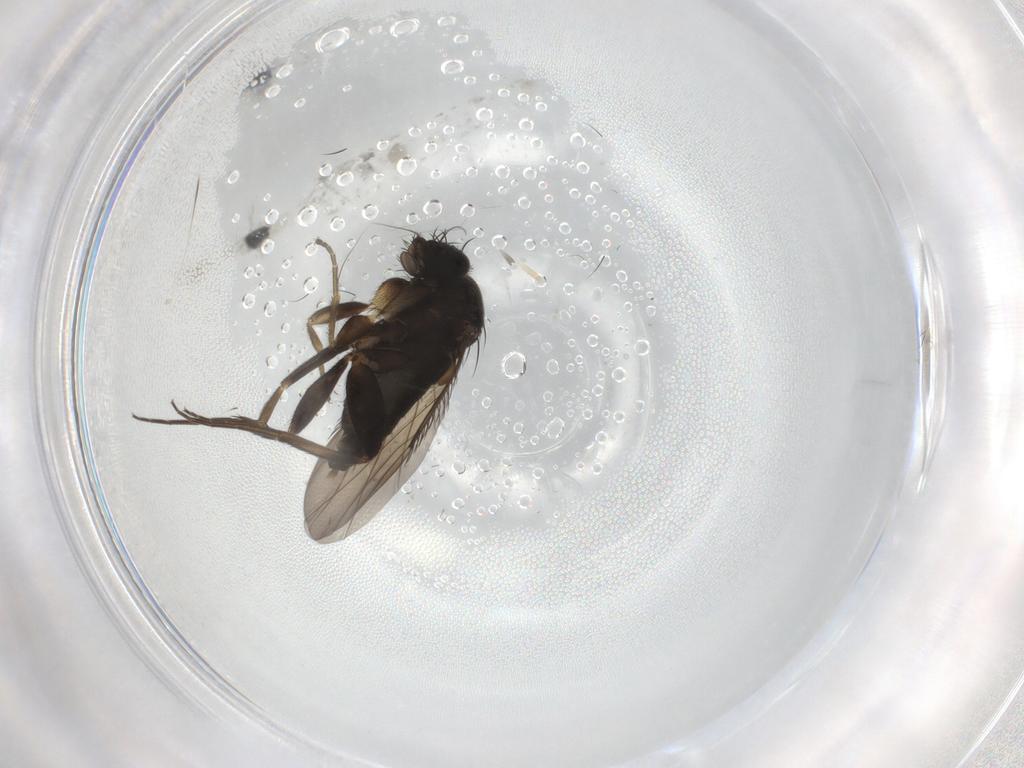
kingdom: Animalia
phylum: Arthropoda
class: Insecta
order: Diptera
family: Phoridae
